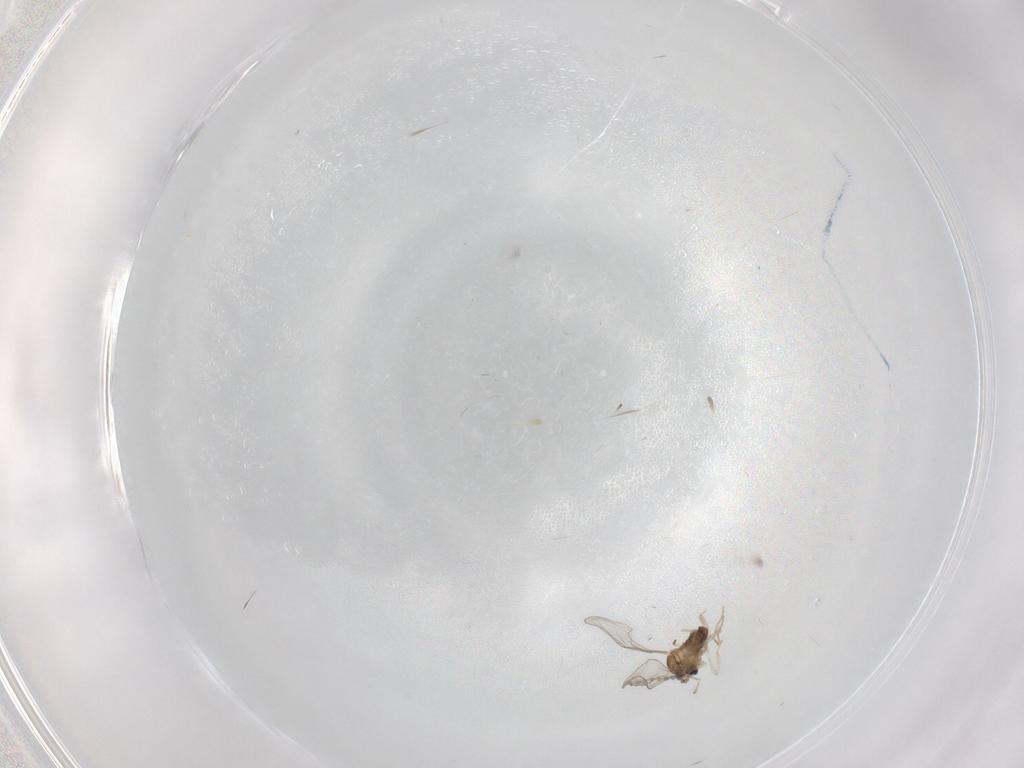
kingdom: Animalia
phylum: Arthropoda
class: Insecta
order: Diptera
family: Cecidomyiidae
